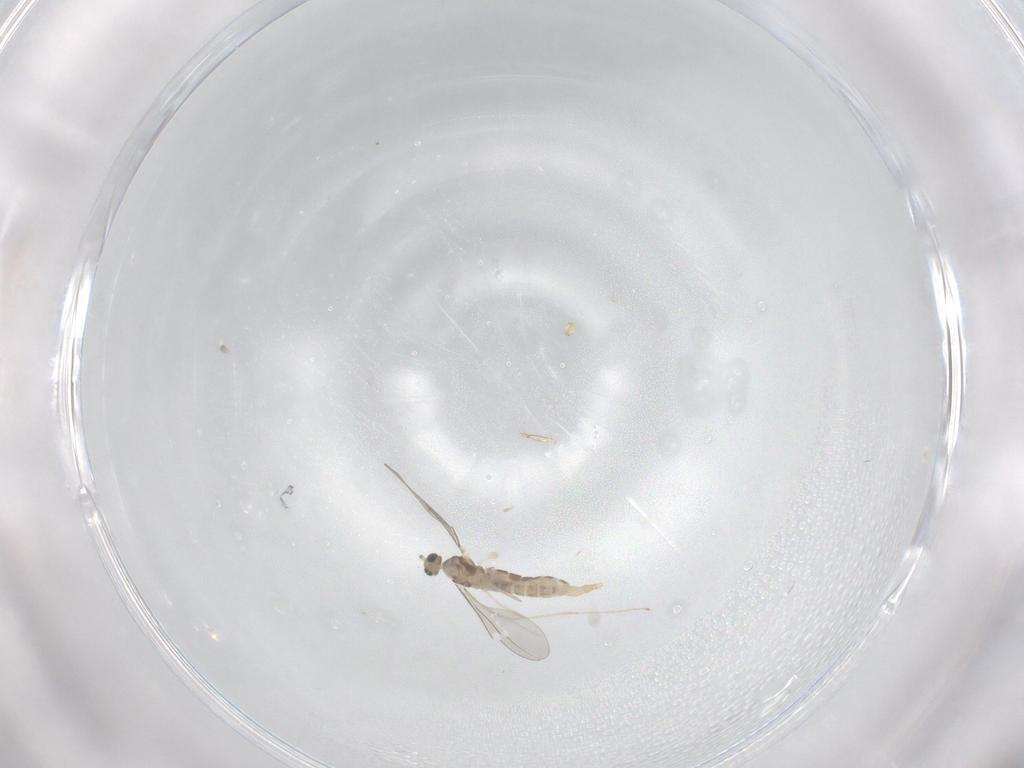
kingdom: Animalia
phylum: Arthropoda
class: Insecta
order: Diptera
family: Cecidomyiidae
